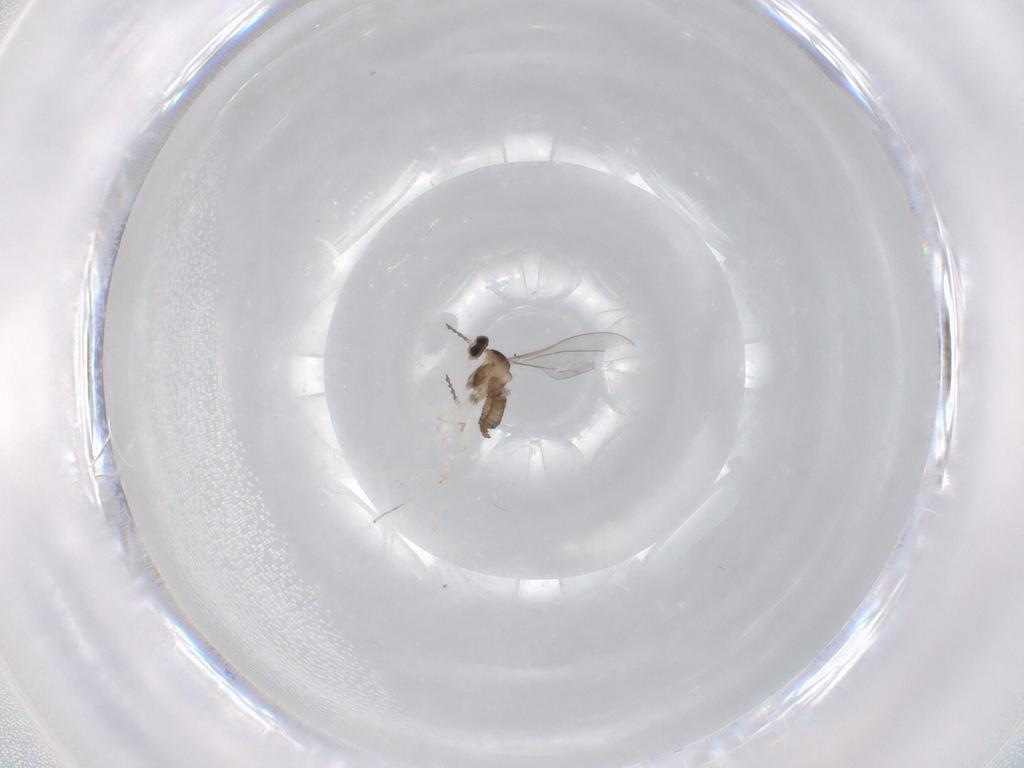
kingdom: Animalia
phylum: Arthropoda
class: Insecta
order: Diptera
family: Cecidomyiidae
